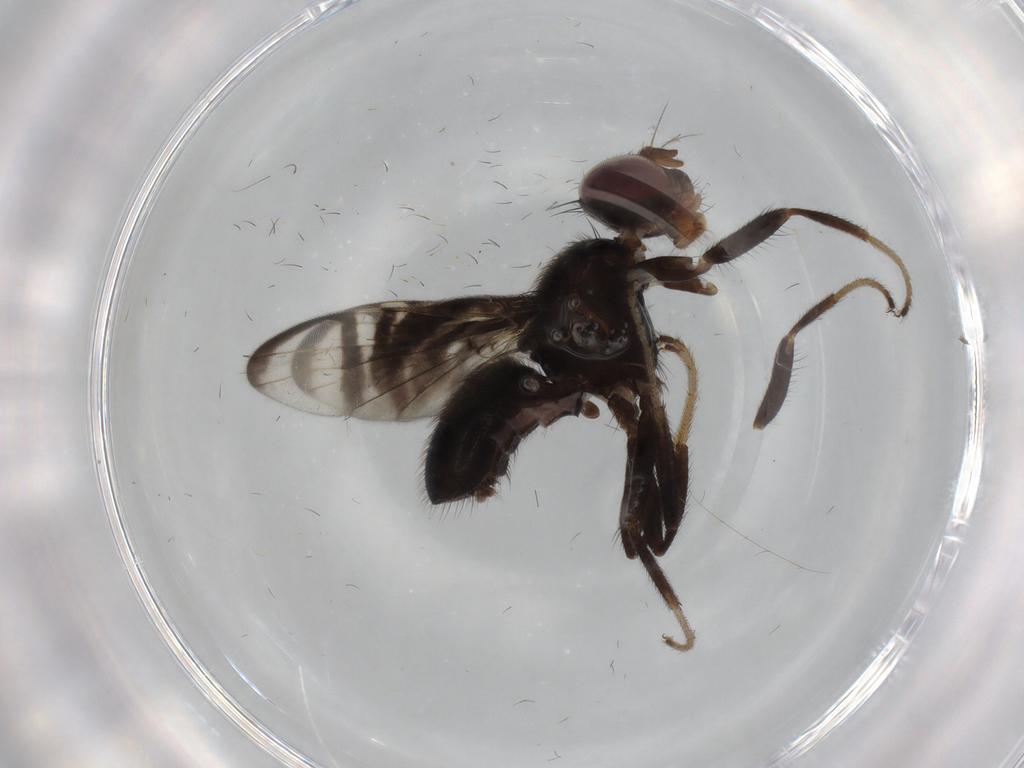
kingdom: Animalia
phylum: Arthropoda
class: Insecta
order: Diptera
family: Platystomatidae
